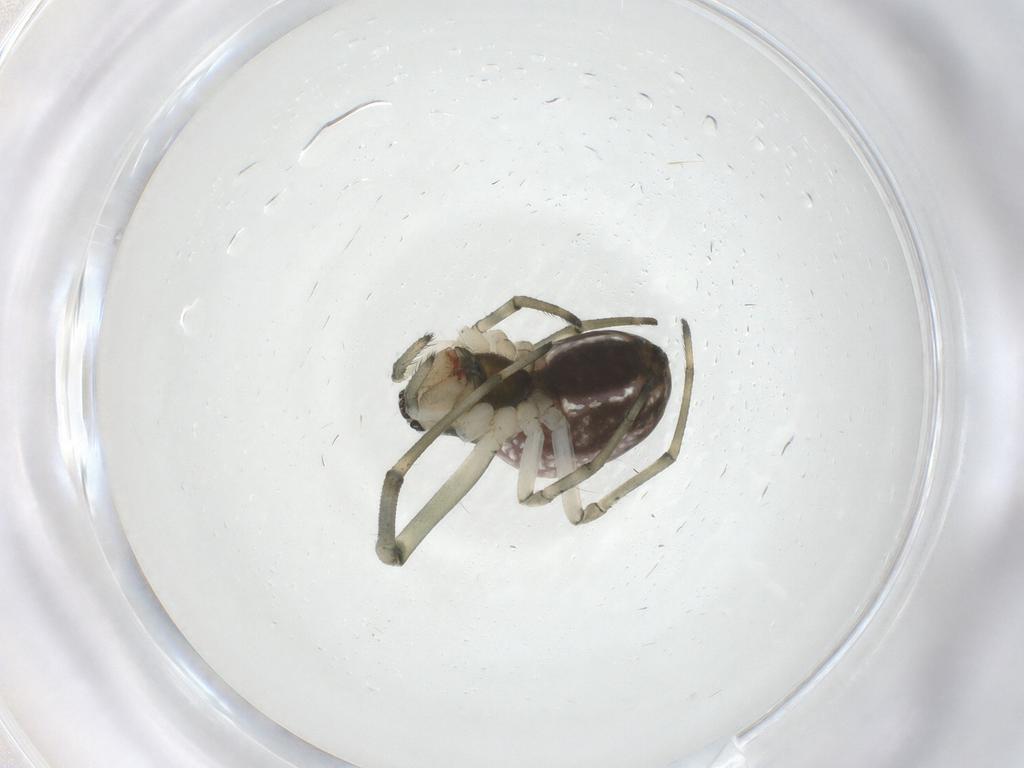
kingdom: Animalia
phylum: Arthropoda
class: Arachnida
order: Araneae
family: Tetragnathidae
